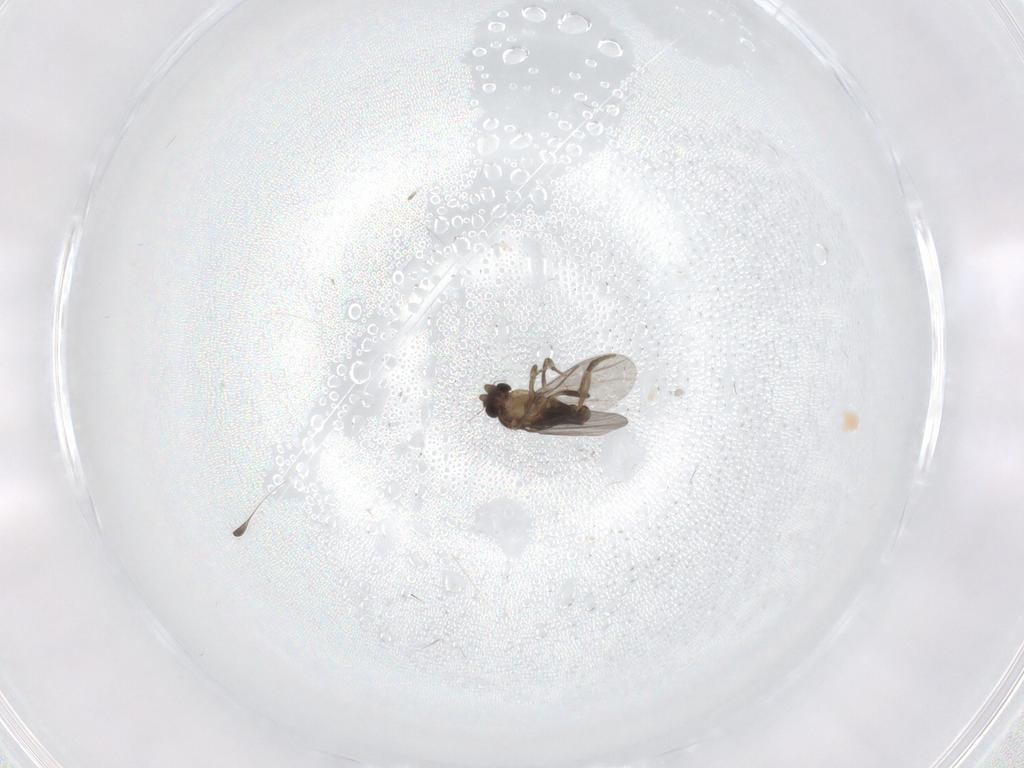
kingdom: Animalia
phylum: Arthropoda
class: Insecta
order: Diptera
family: Cecidomyiidae
